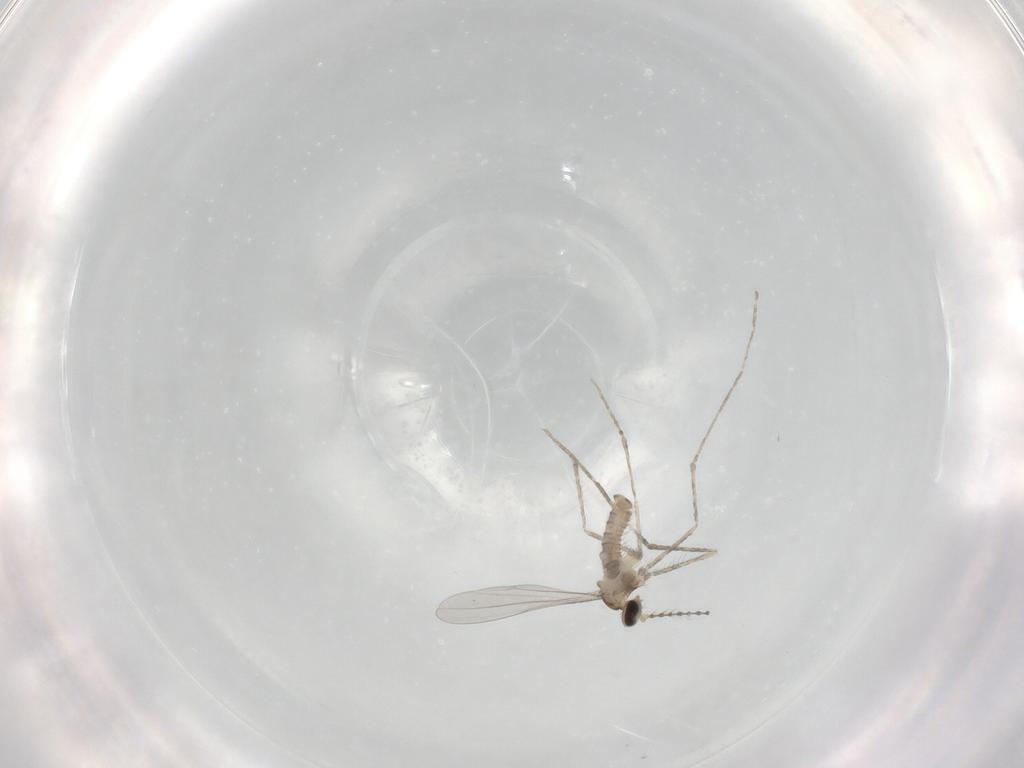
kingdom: Animalia
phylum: Arthropoda
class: Insecta
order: Diptera
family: Cecidomyiidae
